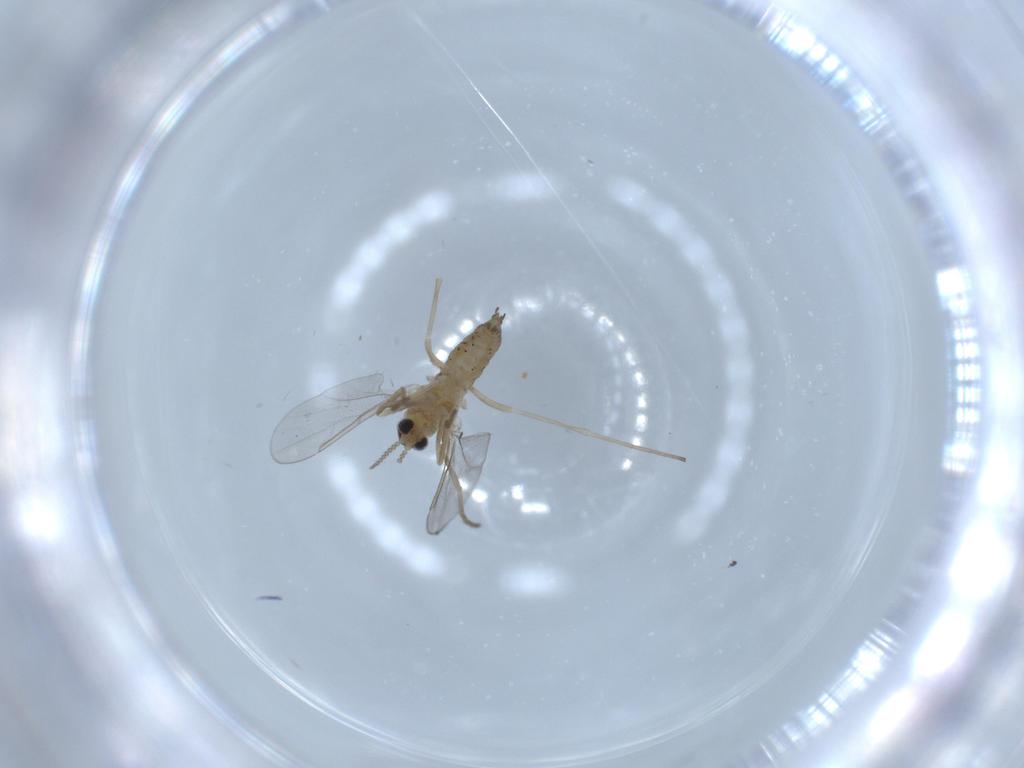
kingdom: Animalia
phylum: Arthropoda
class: Insecta
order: Diptera
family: Cecidomyiidae
